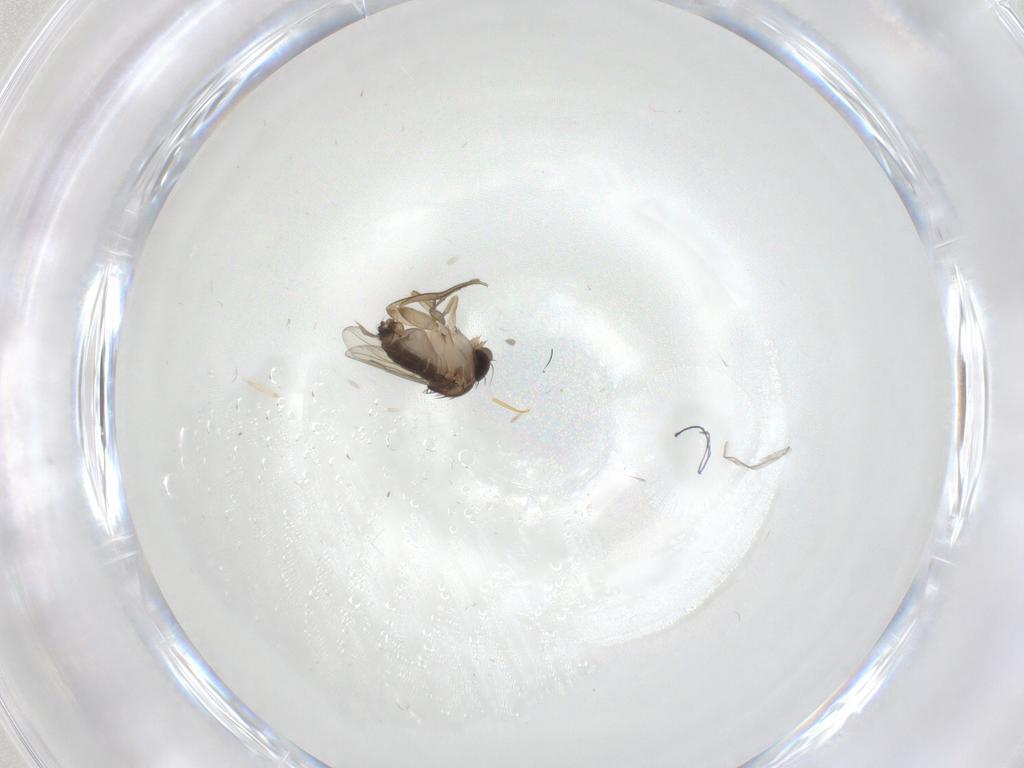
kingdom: Animalia
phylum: Arthropoda
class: Insecta
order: Diptera
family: Phoridae
